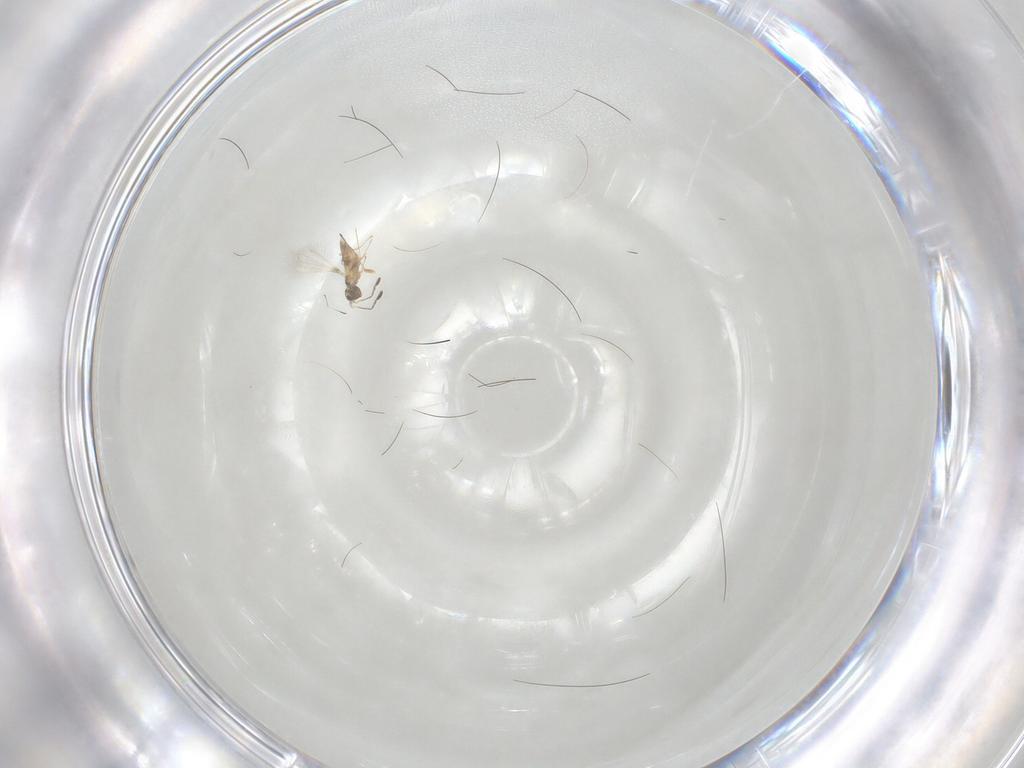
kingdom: Animalia
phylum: Arthropoda
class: Insecta
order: Hymenoptera
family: Mymaridae
